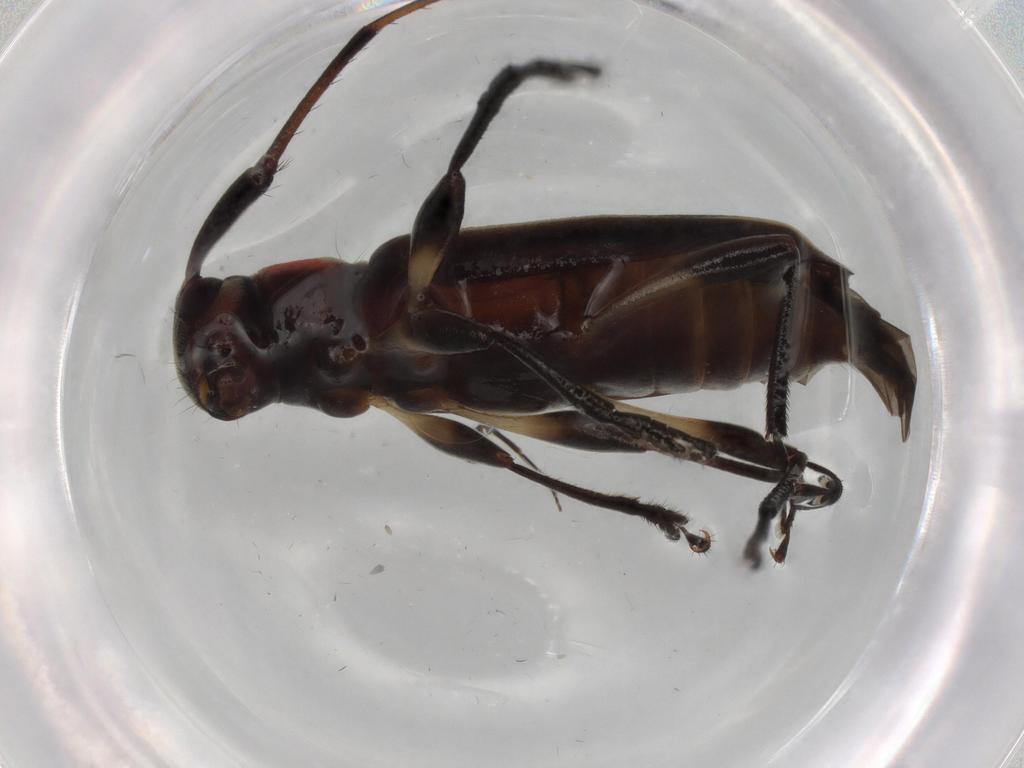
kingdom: Animalia
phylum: Arthropoda
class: Insecta
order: Coleoptera
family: Cerambycidae
